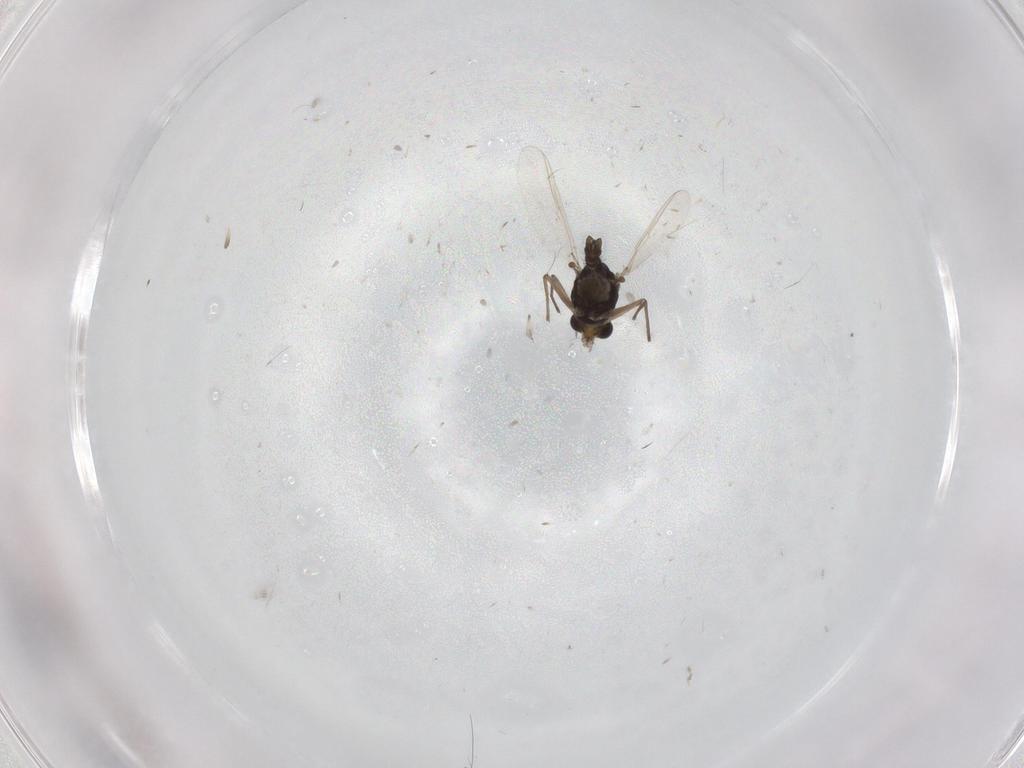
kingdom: Animalia
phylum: Arthropoda
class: Insecta
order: Diptera
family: Chironomidae
